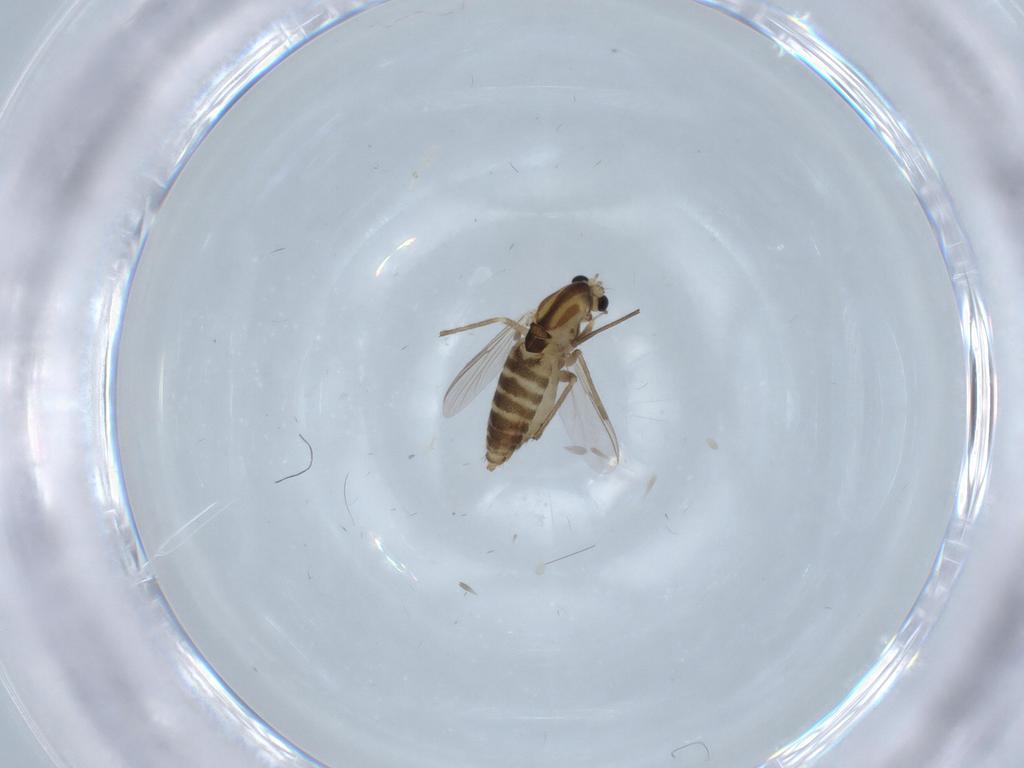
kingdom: Animalia
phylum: Arthropoda
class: Insecta
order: Diptera
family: Chironomidae
